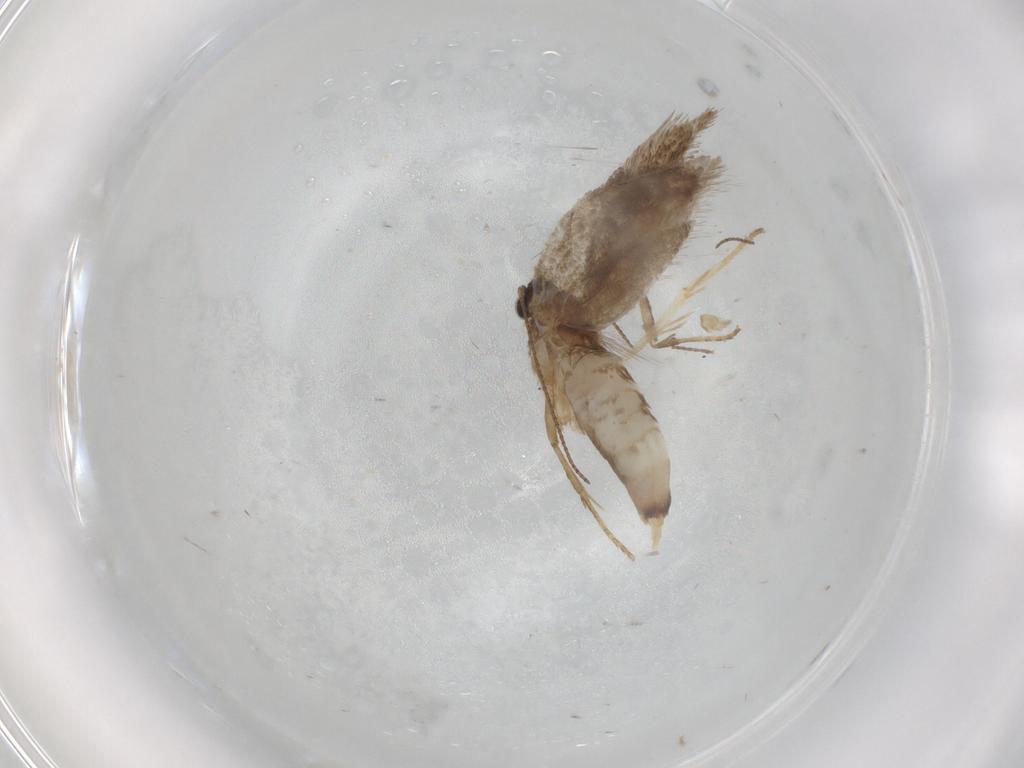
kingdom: Animalia
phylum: Arthropoda
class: Insecta
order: Lepidoptera
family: Nepticulidae
